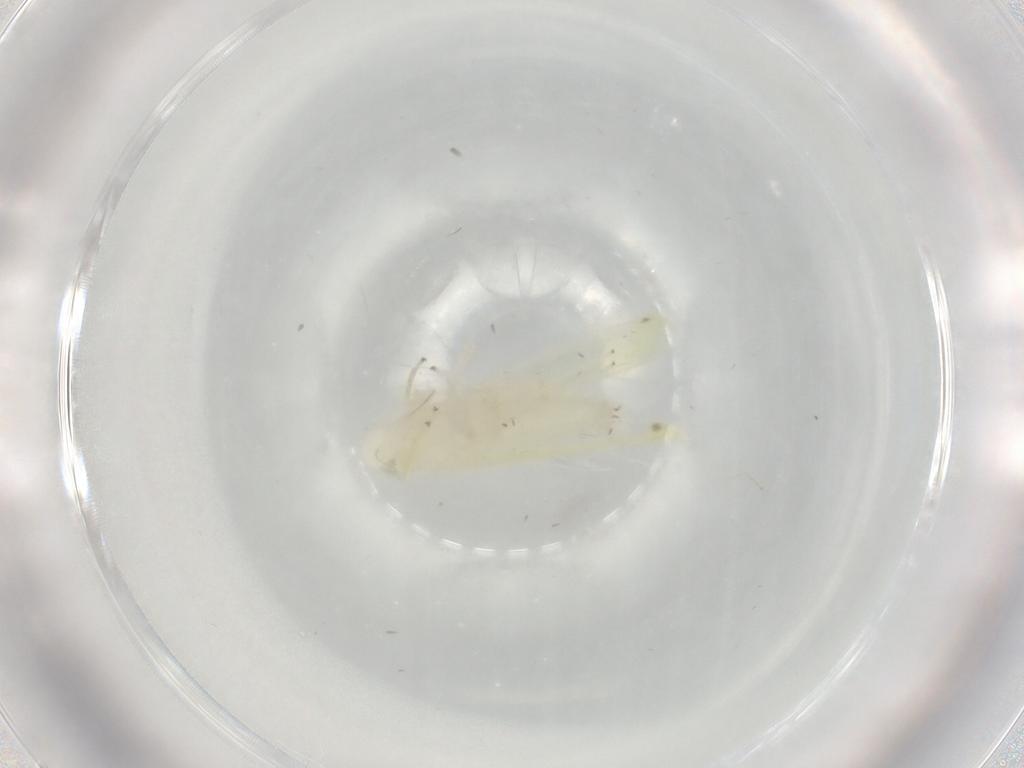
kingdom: Animalia
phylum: Arthropoda
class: Insecta
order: Hemiptera
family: Cicadellidae
